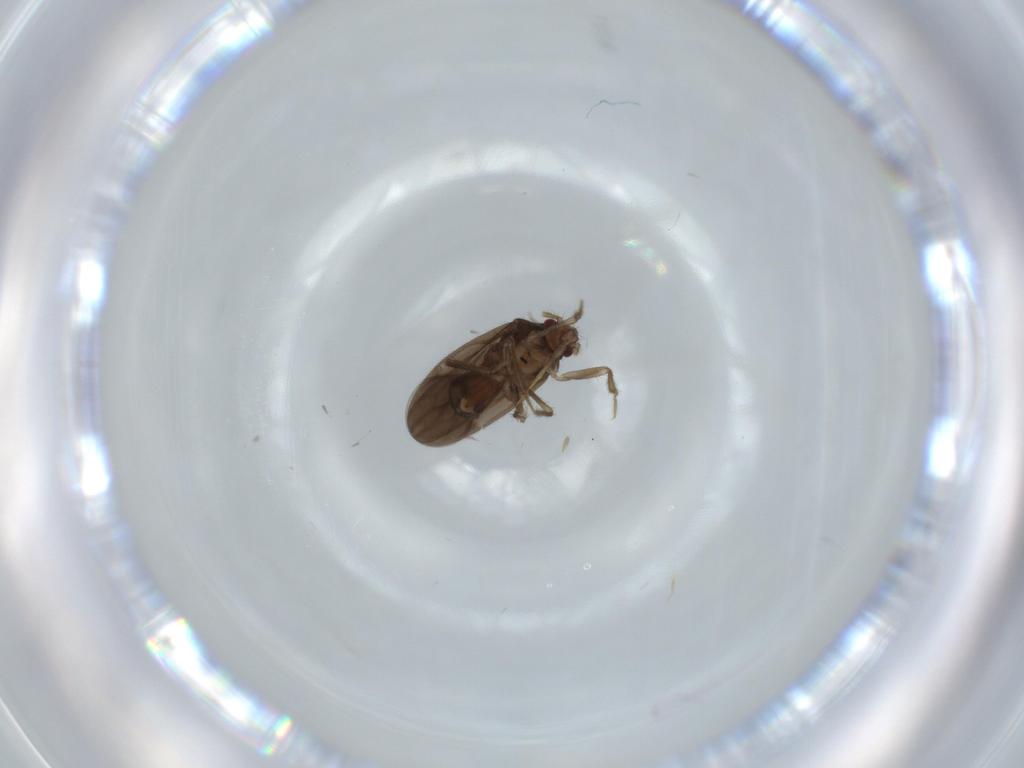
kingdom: Animalia
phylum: Arthropoda
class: Insecta
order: Hemiptera
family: Ceratocombidae
